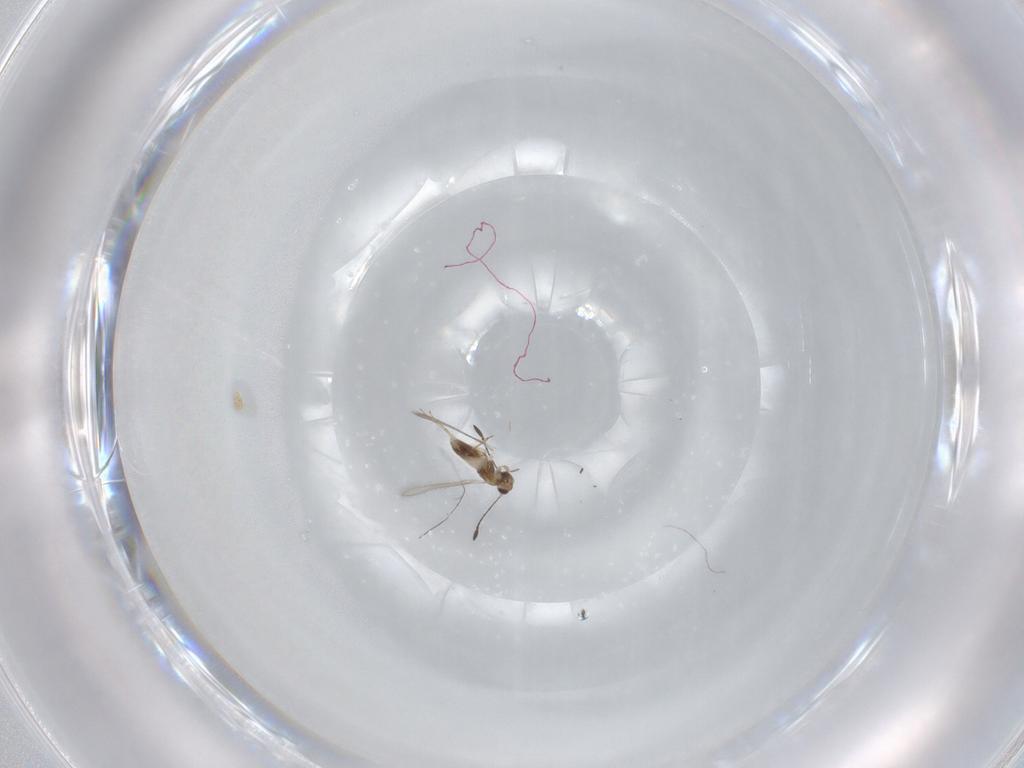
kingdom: Animalia
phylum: Arthropoda
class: Insecta
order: Hymenoptera
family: Mymaridae
